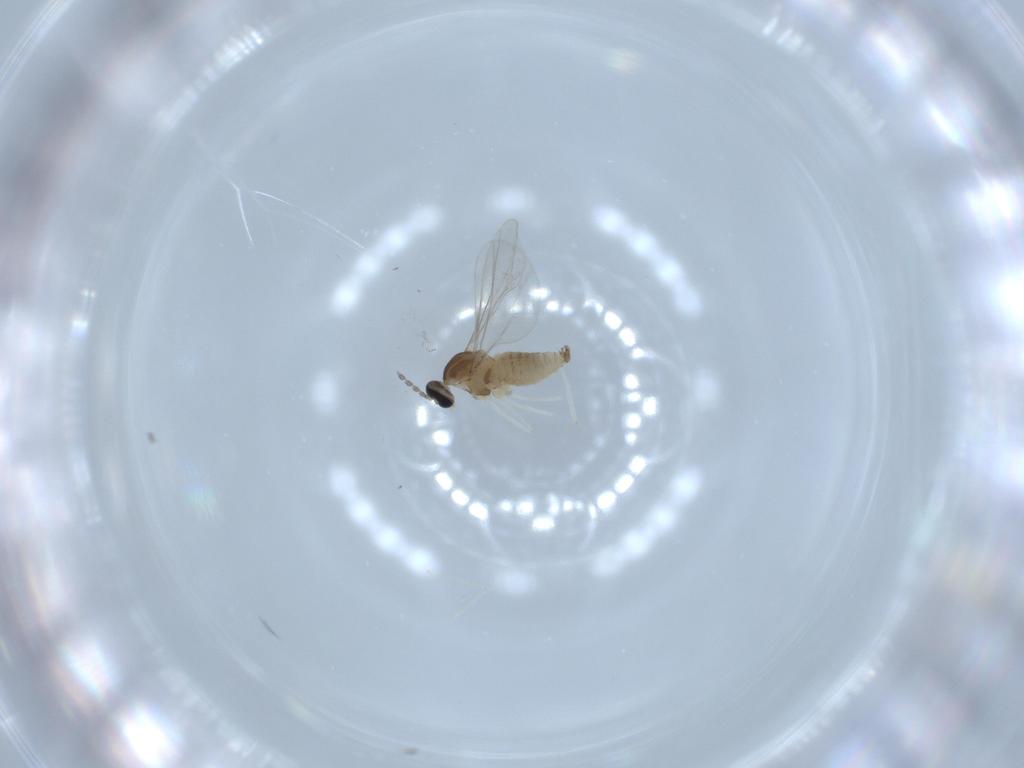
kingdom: Animalia
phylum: Arthropoda
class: Insecta
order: Diptera
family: Cecidomyiidae
